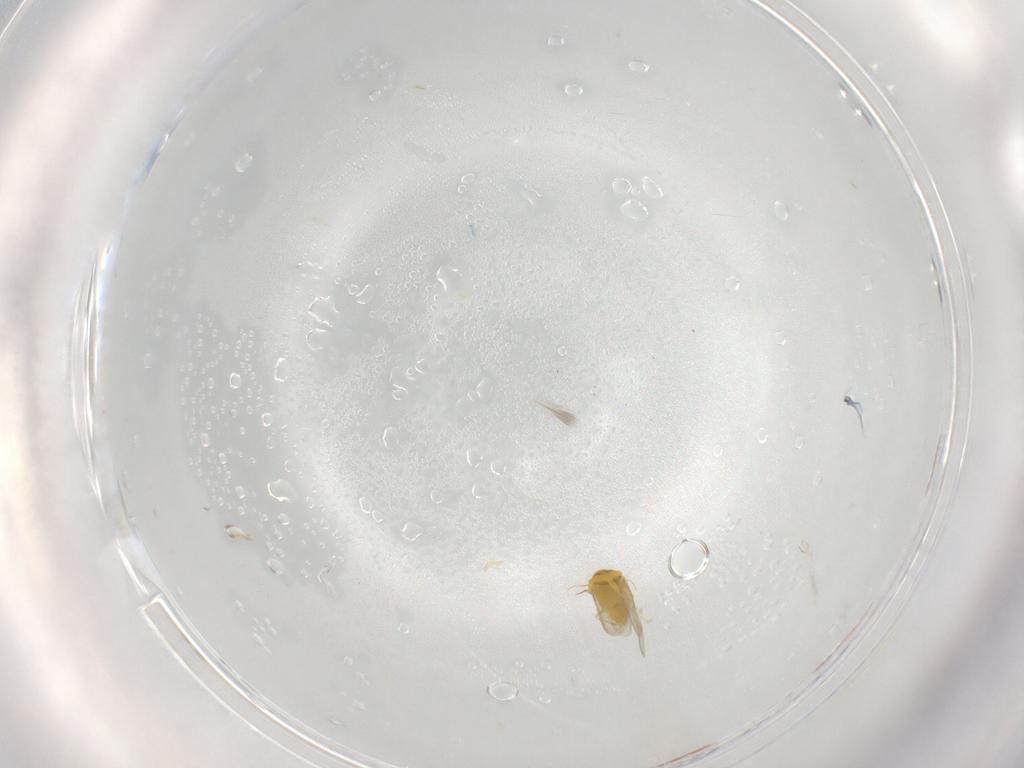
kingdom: Animalia
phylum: Arthropoda
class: Insecta
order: Hemiptera
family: Aleyrodidae
